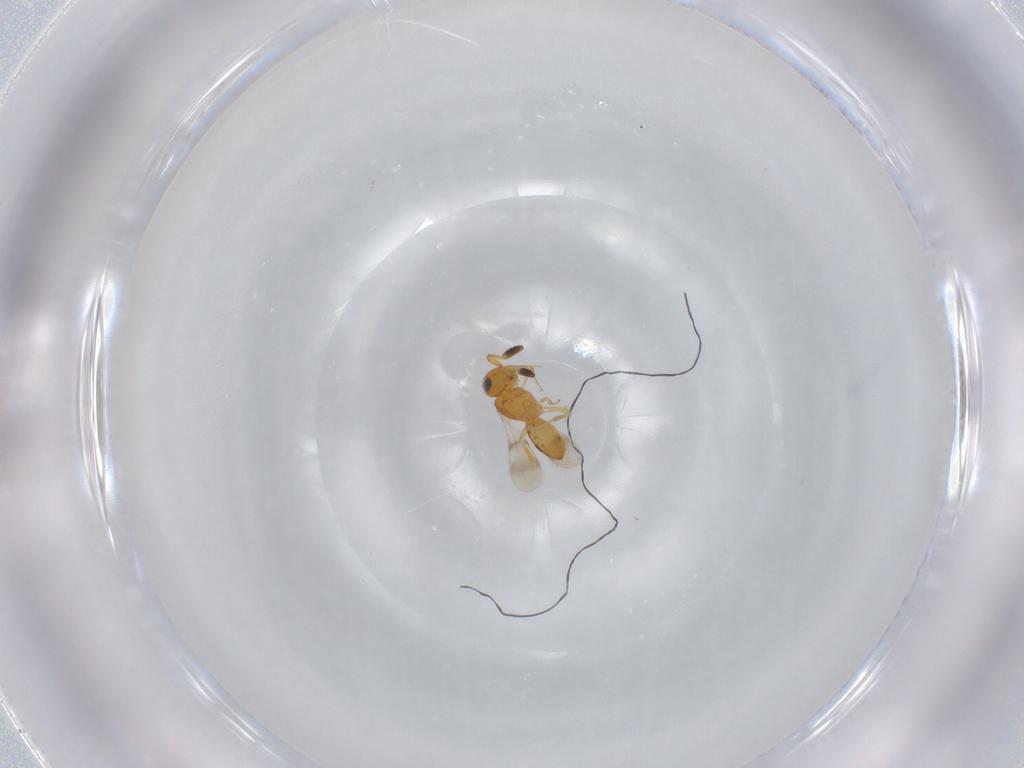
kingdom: Animalia
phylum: Arthropoda
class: Insecta
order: Hymenoptera
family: Scelionidae
